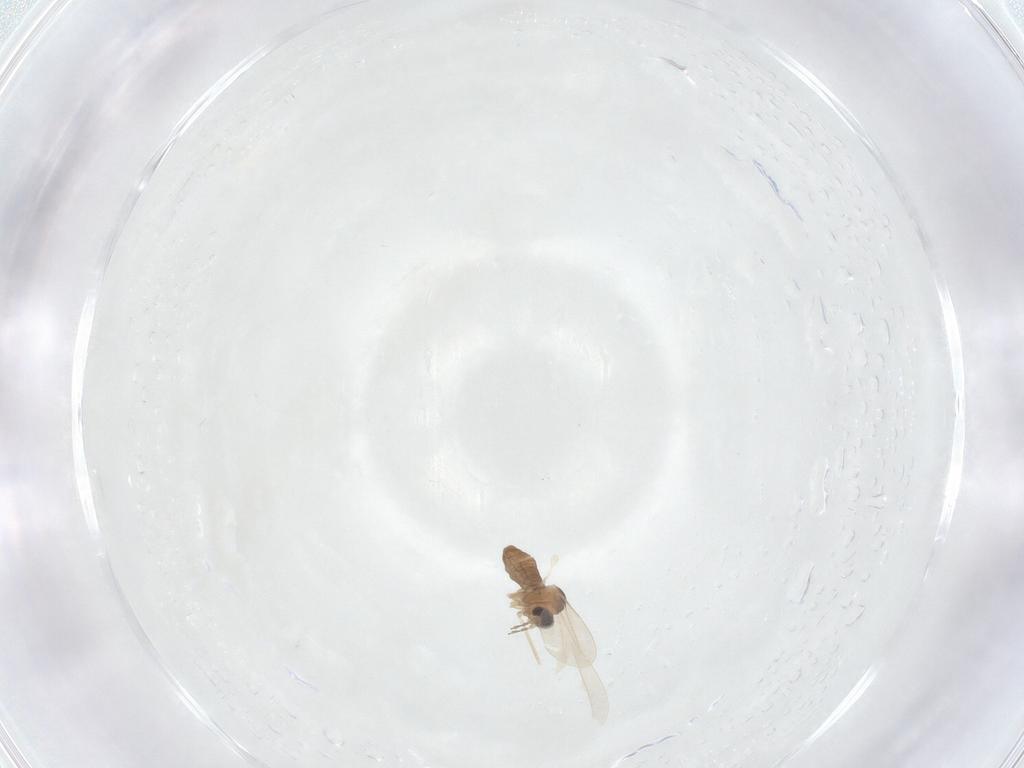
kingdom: Animalia
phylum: Arthropoda
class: Insecta
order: Diptera
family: Cecidomyiidae
